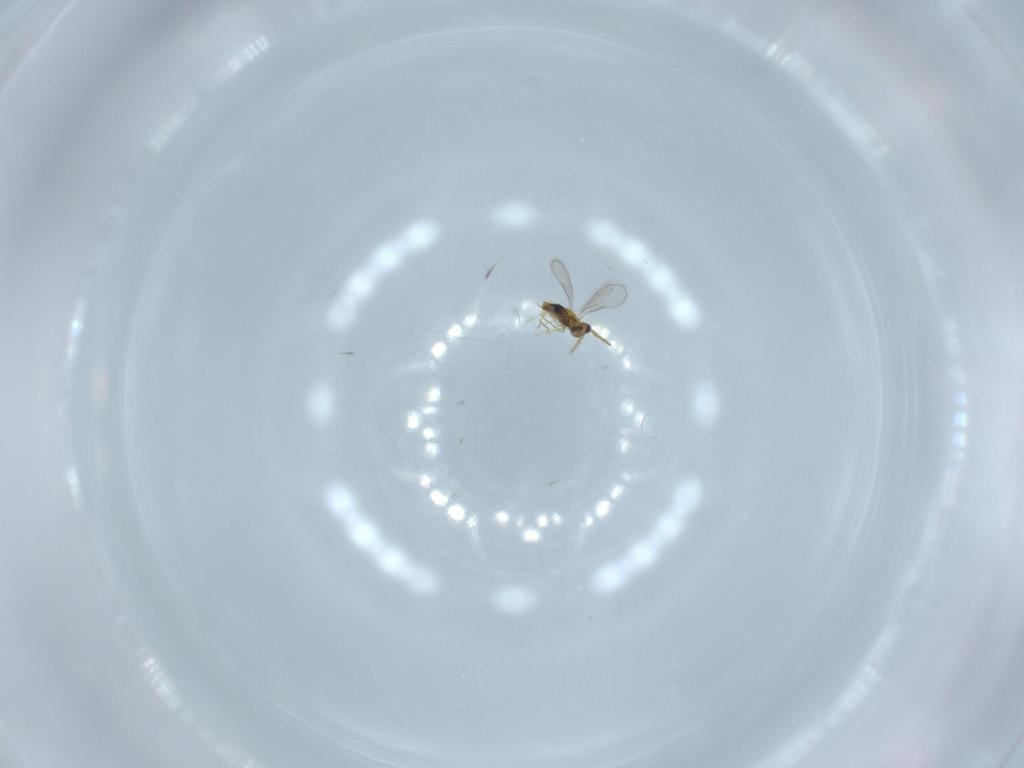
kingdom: Animalia
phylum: Arthropoda
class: Insecta
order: Hymenoptera
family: Aphelinidae
